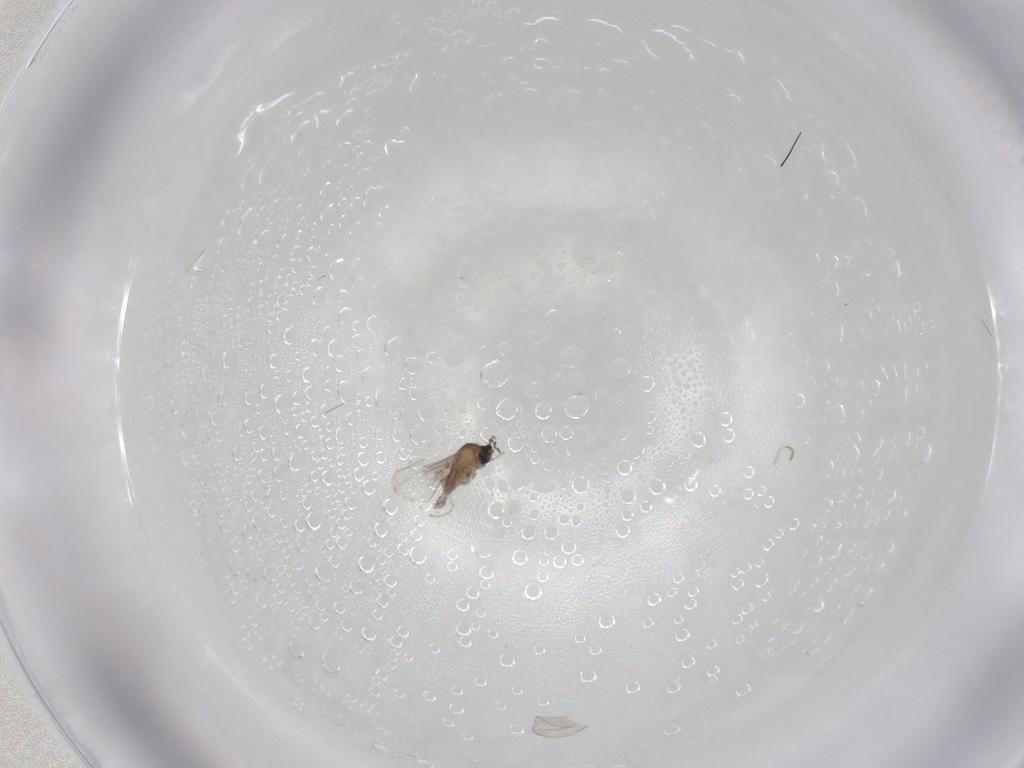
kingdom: Animalia
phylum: Arthropoda
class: Insecta
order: Diptera
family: Cecidomyiidae
